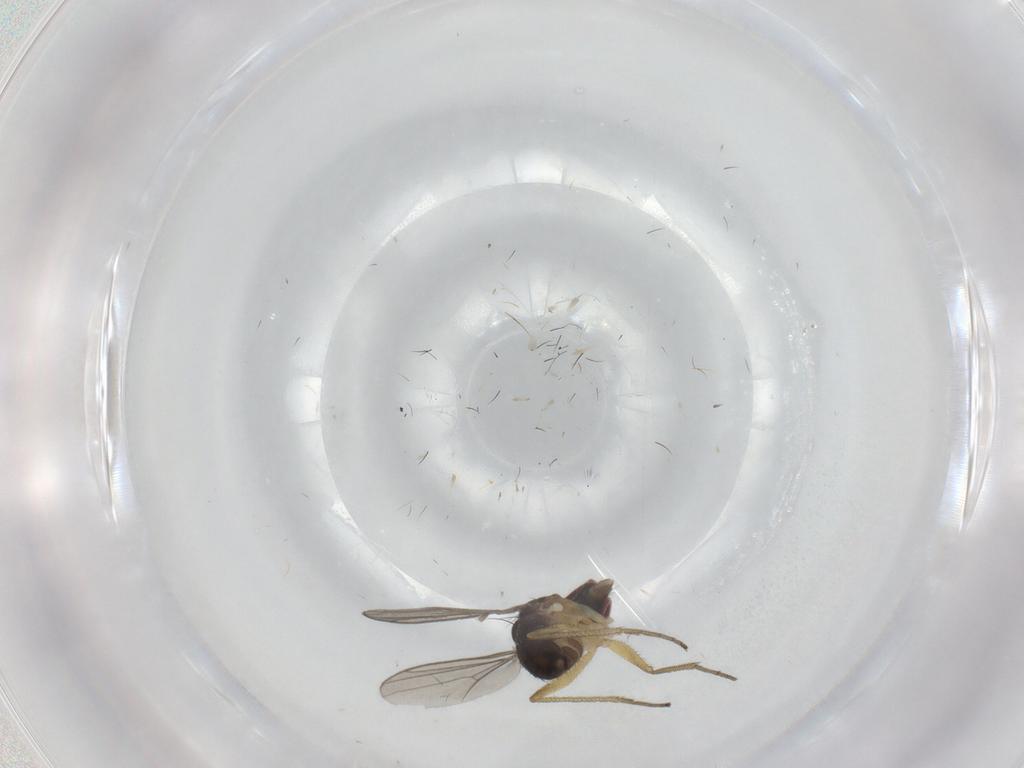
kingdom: Animalia
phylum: Arthropoda
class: Insecta
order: Diptera
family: Dolichopodidae
